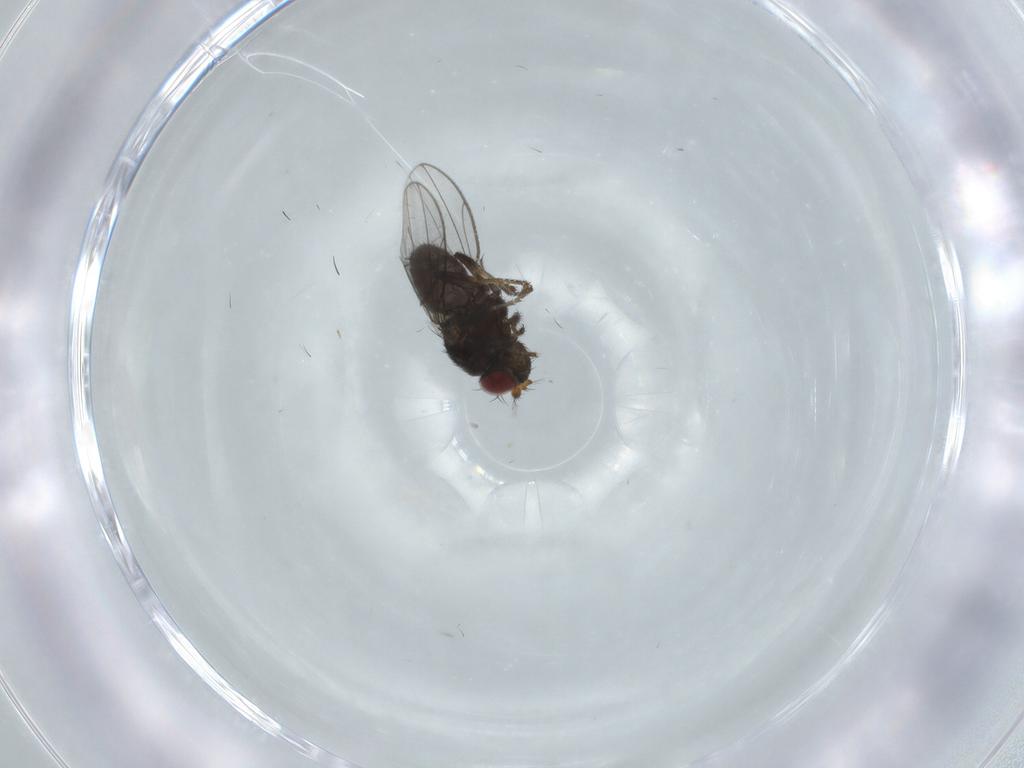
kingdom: Animalia
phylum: Arthropoda
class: Insecta
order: Diptera
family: Ephydridae
